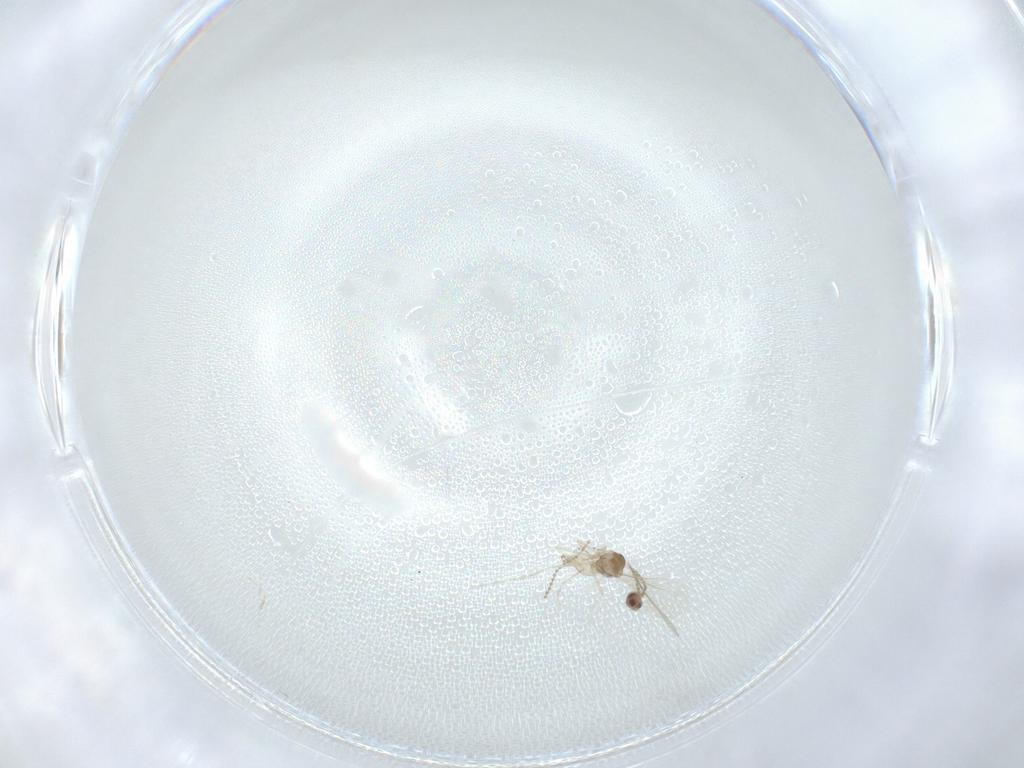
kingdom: Animalia
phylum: Arthropoda
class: Insecta
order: Diptera
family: Cecidomyiidae
